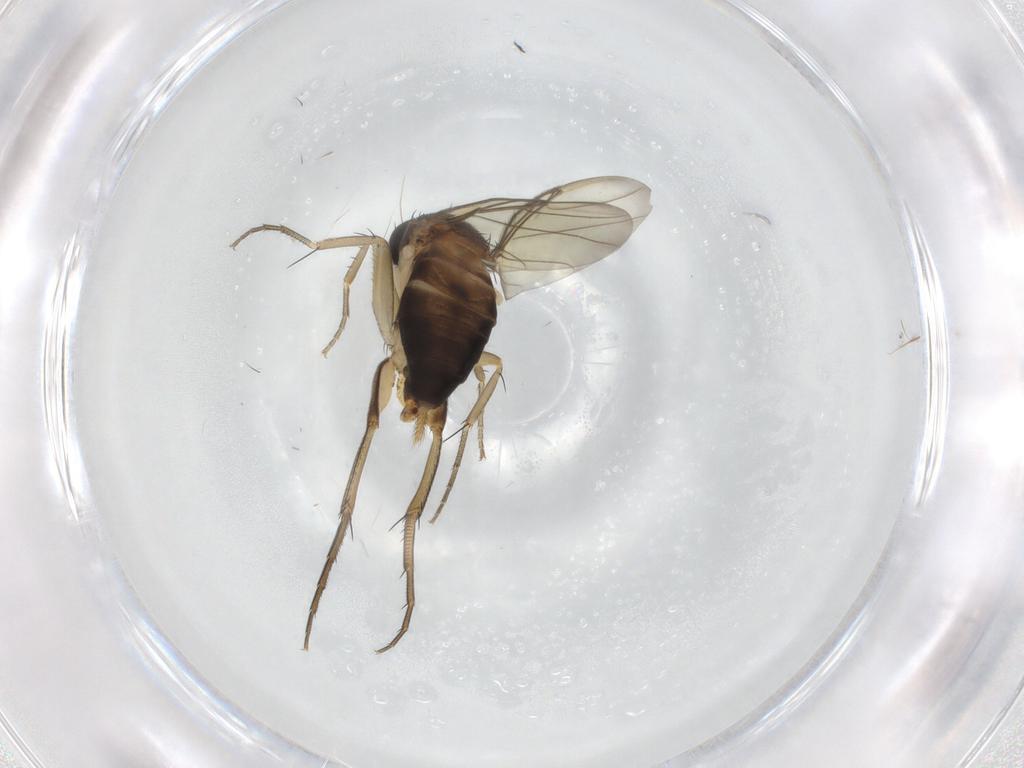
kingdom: Animalia
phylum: Arthropoda
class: Insecta
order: Diptera
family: Phoridae
